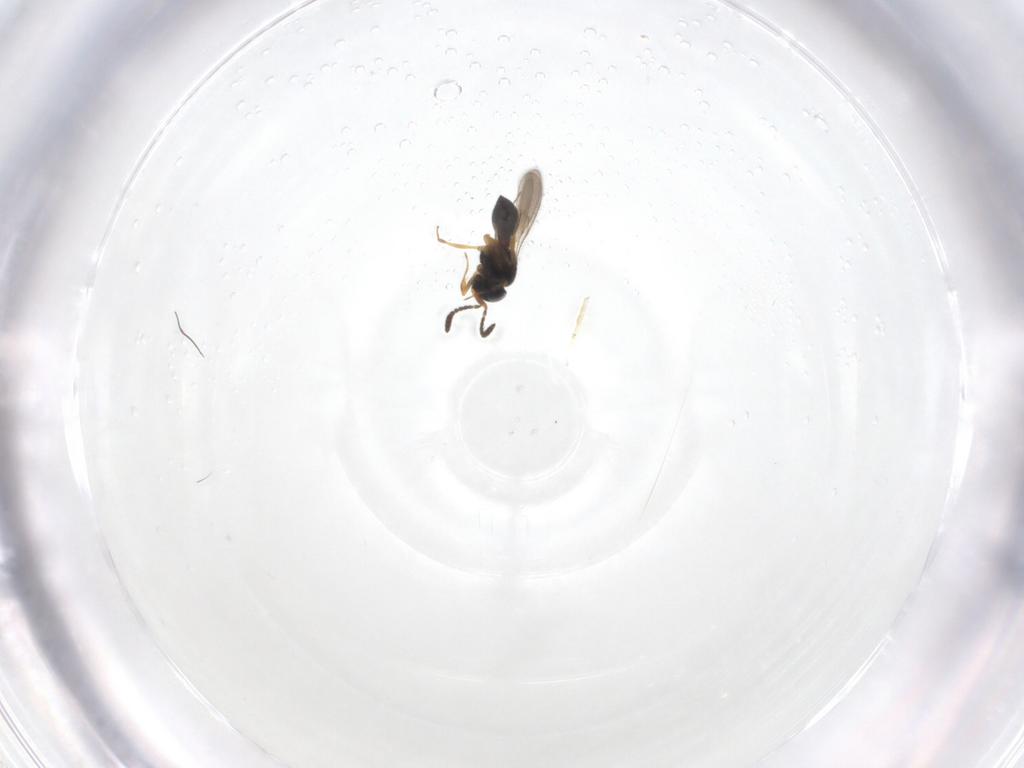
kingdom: Animalia
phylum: Arthropoda
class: Insecta
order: Hymenoptera
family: Scelionidae
